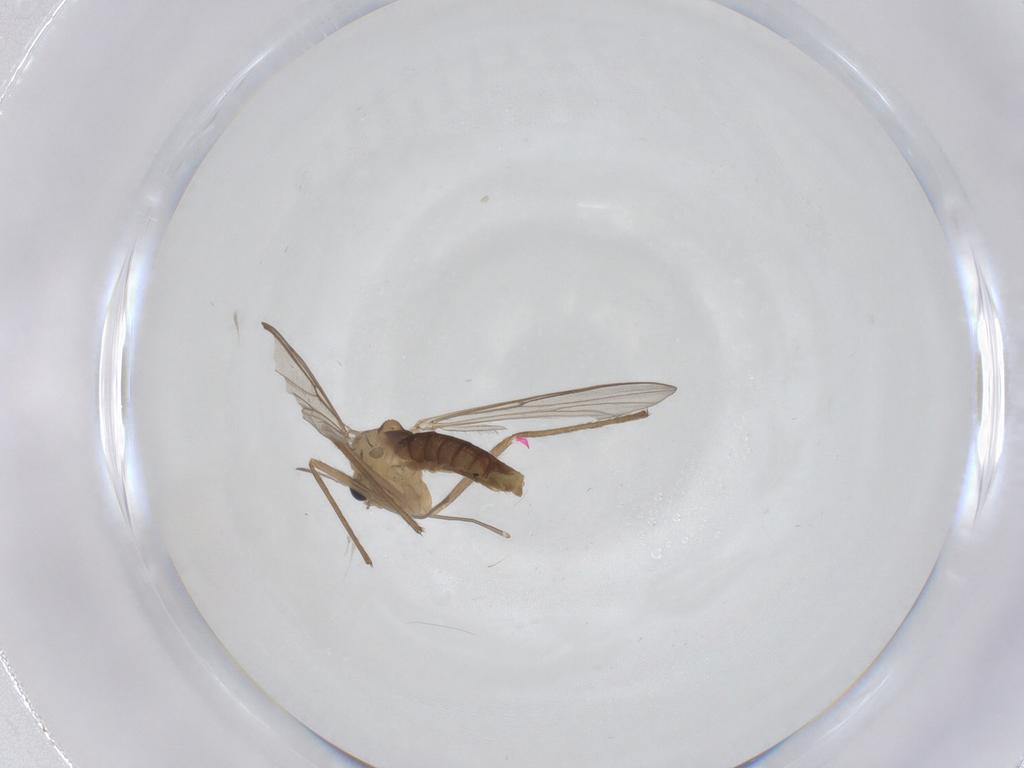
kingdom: Animalia
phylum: Arthropoda
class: Insecta
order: Diptera
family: Chironomidae
